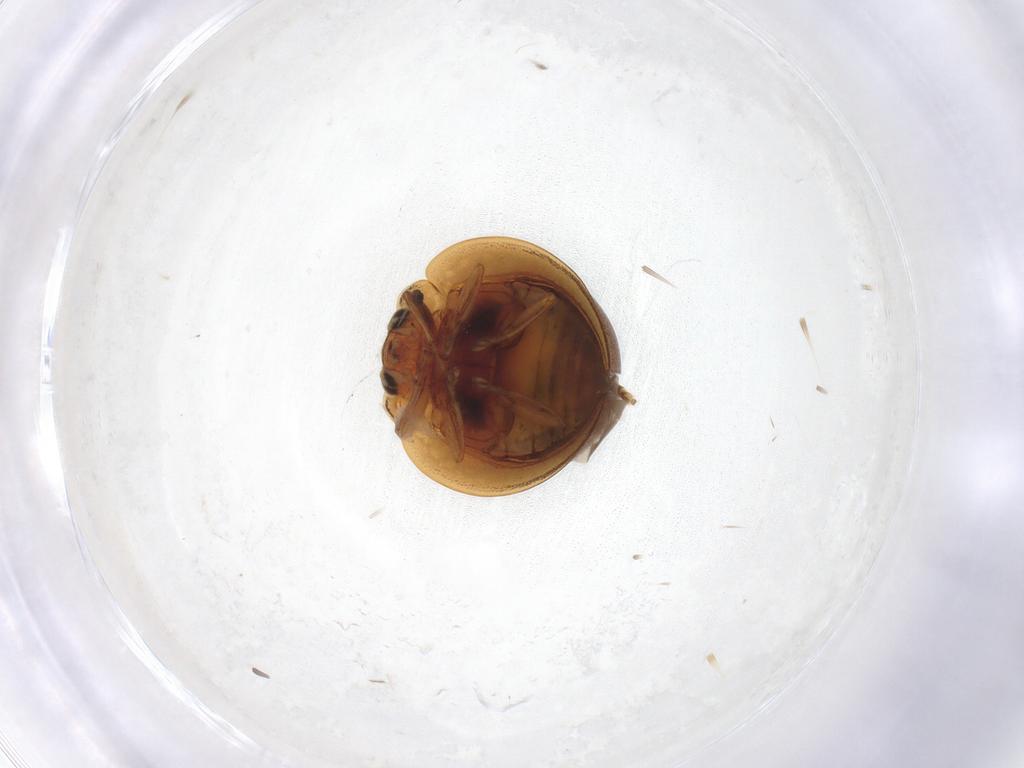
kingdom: Animalia
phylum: Arthropoda
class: Insecta
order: Coleoptera
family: Coccinellidae
